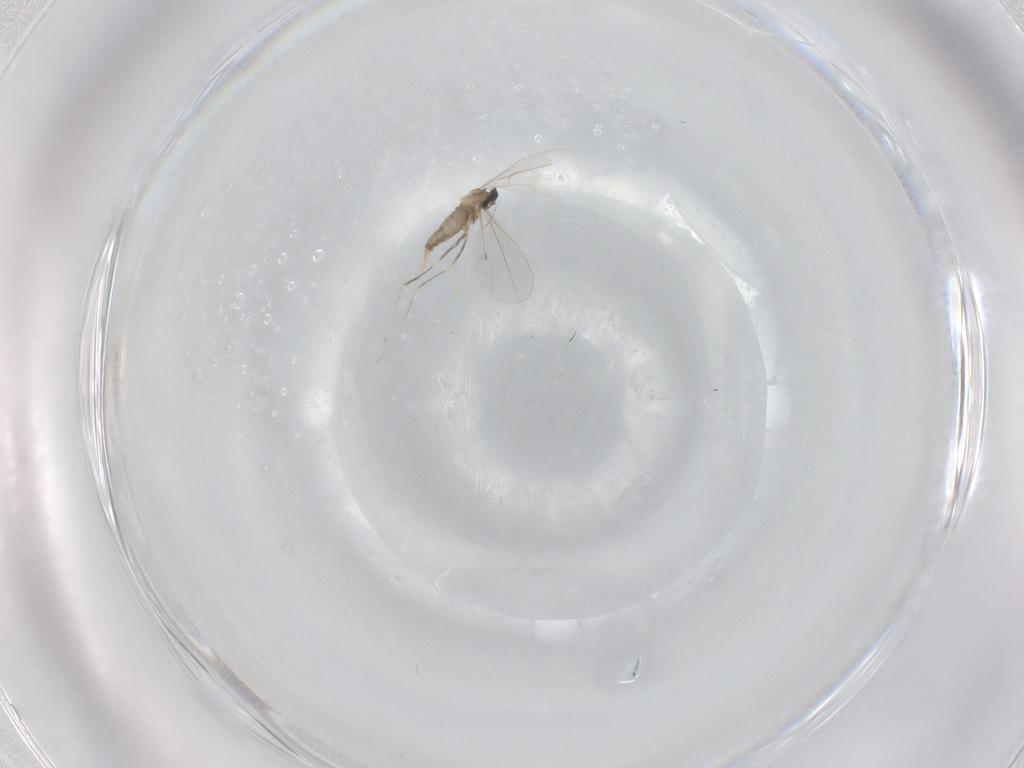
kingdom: Animalia
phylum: Arthropoda
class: Insecta
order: Diptera
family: Cecidomyiidae
